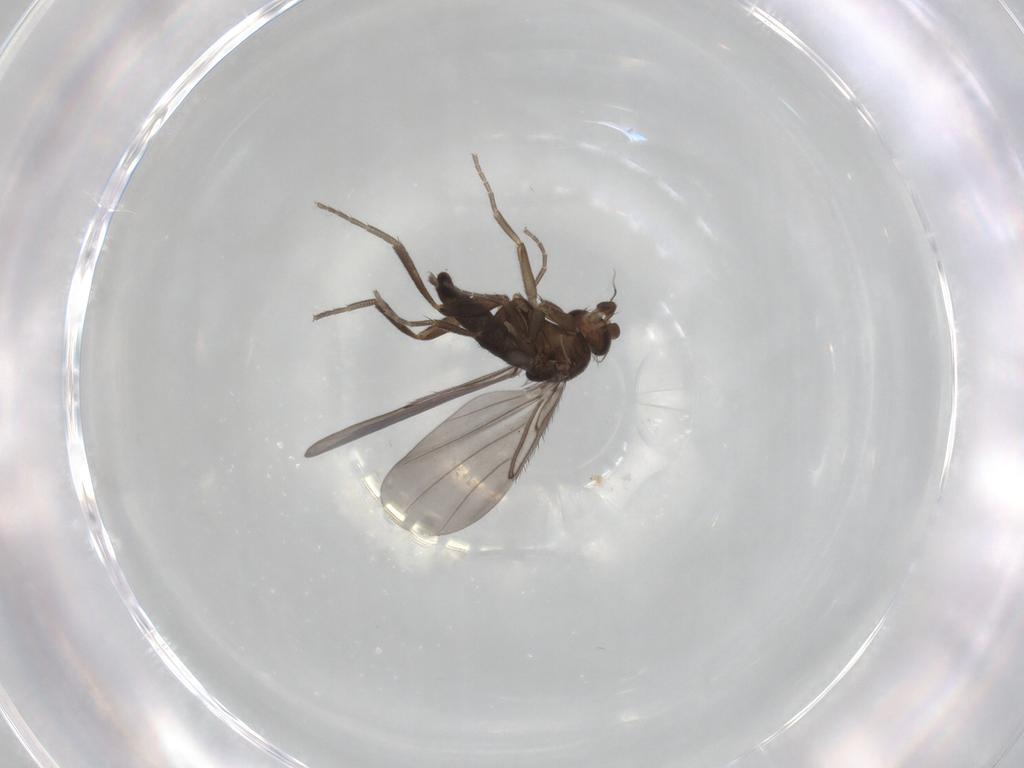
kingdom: Animalia
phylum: Arthropoda
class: Insecta
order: Diptera
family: Phoridae
